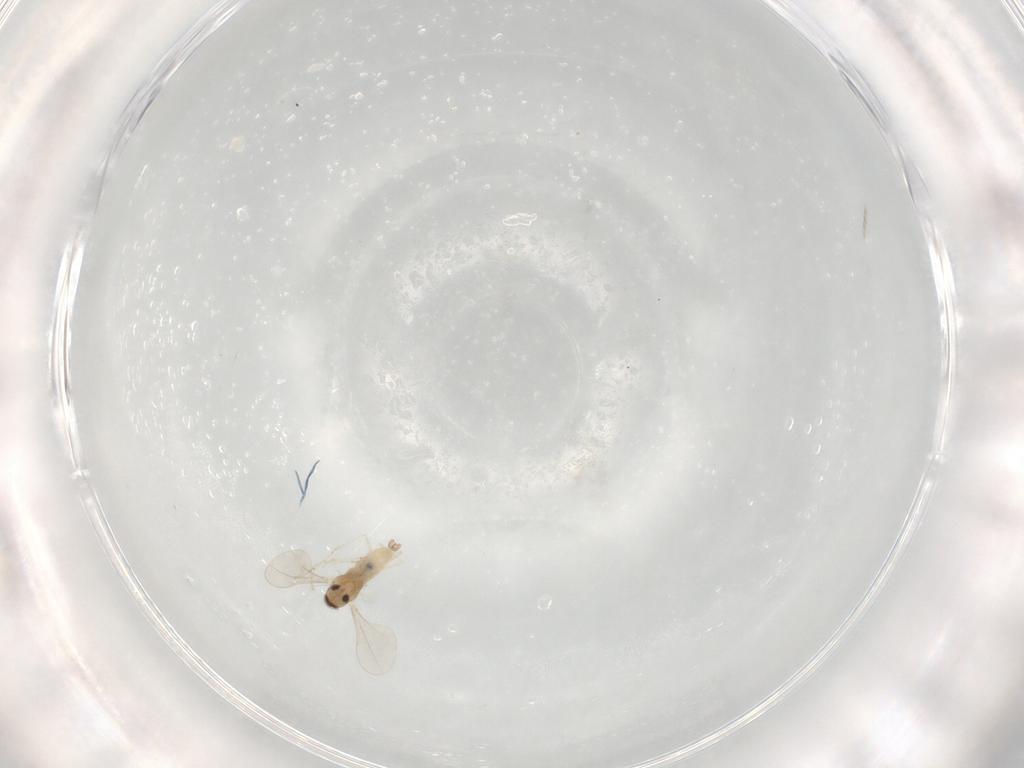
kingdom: Animalia
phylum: Arthropoda
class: Insecta
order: Diptera
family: Cecidomyiidae
